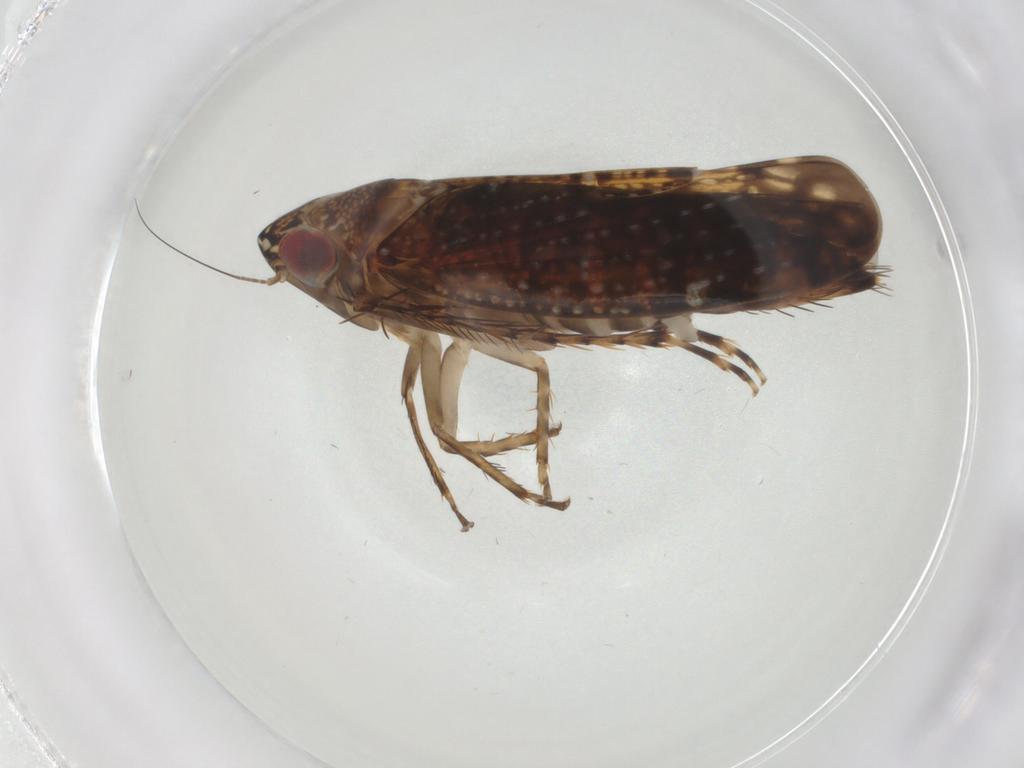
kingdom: Animalia
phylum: Arthropoda
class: Insecta
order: Hemiptera
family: Cicadellidae
